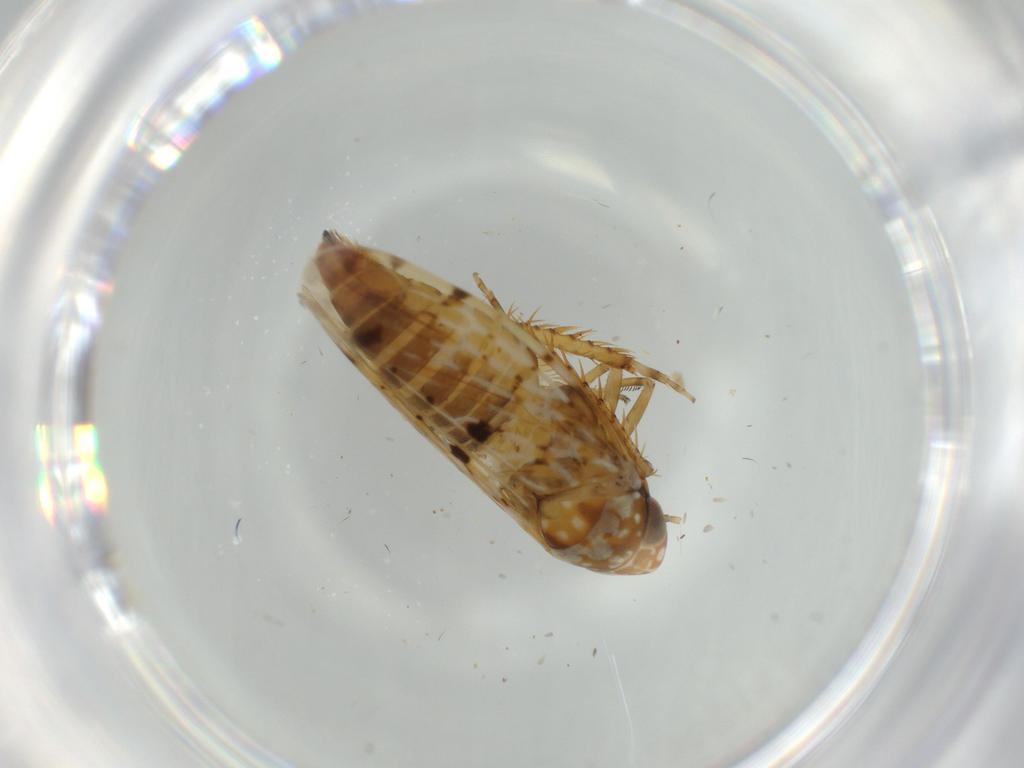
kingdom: Animalia
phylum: Arthropoda
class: Insecta
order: Hemiptera
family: Cicadellidae
